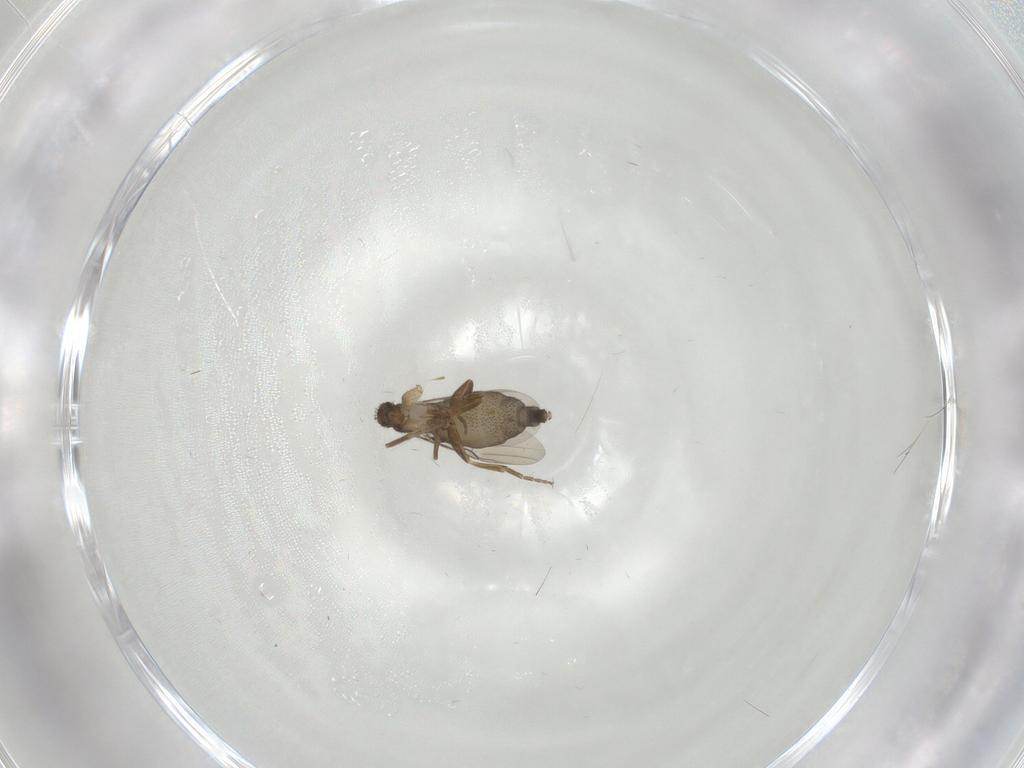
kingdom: Animalia
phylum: Arthropoda
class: Insecta
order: Diptera
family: Phoridae
